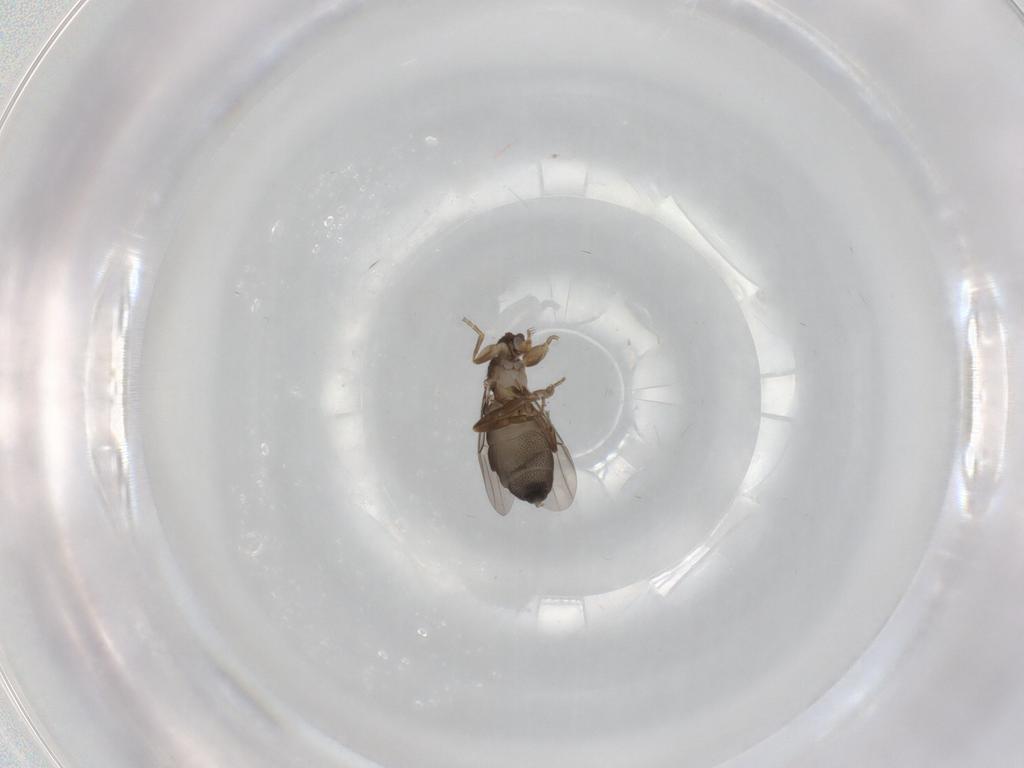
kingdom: Animalia
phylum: Arthropoda
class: Insecta
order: Diptera
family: Phoridae
